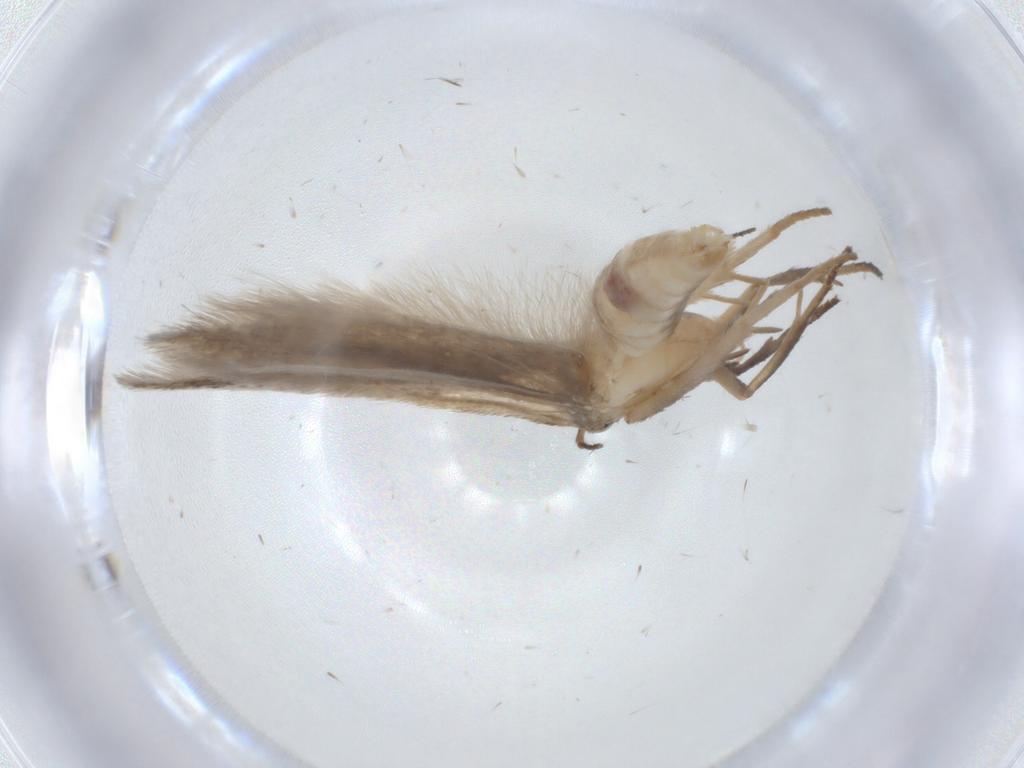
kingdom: Animalia
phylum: Arthropoda
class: Insecta
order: Lepidoptera
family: Gelechiidae
